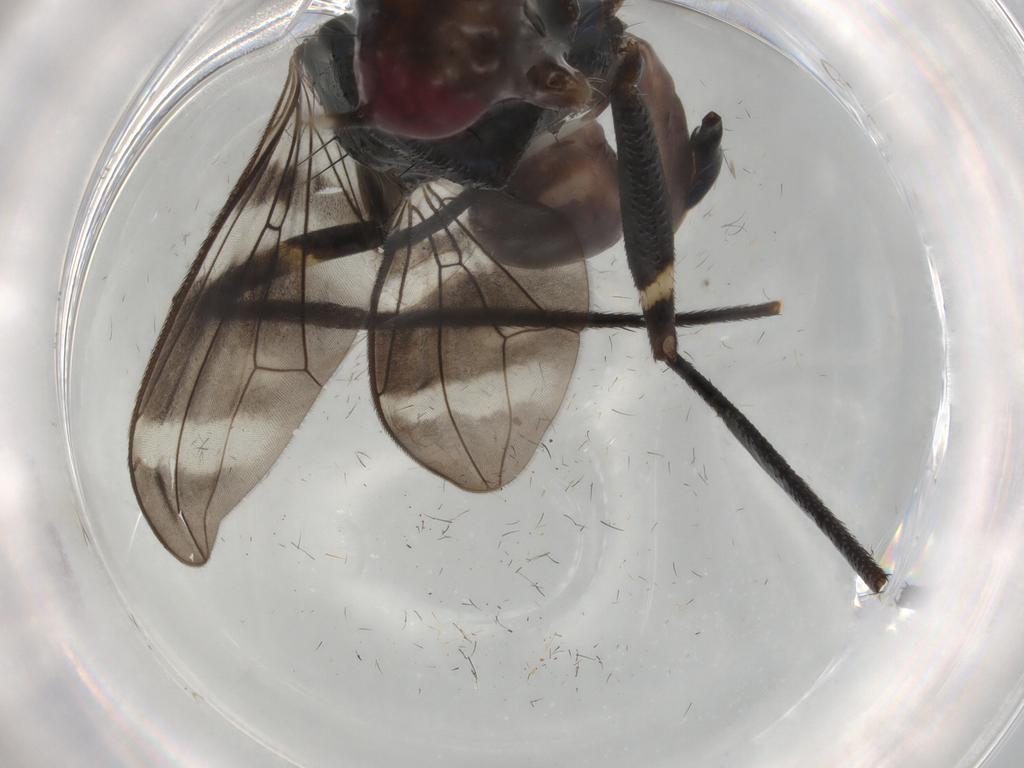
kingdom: Animalia
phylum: Arthropoda
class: Insecta
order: Diptera
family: Micropezidae
